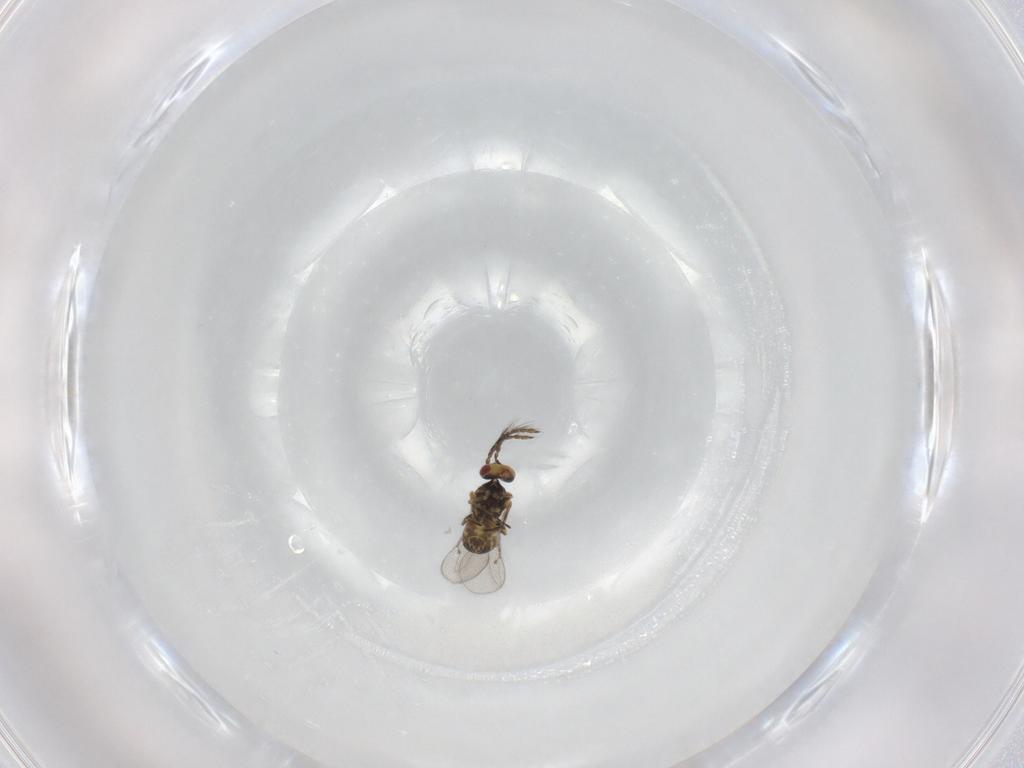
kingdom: Animalia
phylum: Arthropoda
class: Insecta
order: Hymenoptera
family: Eulophidae
